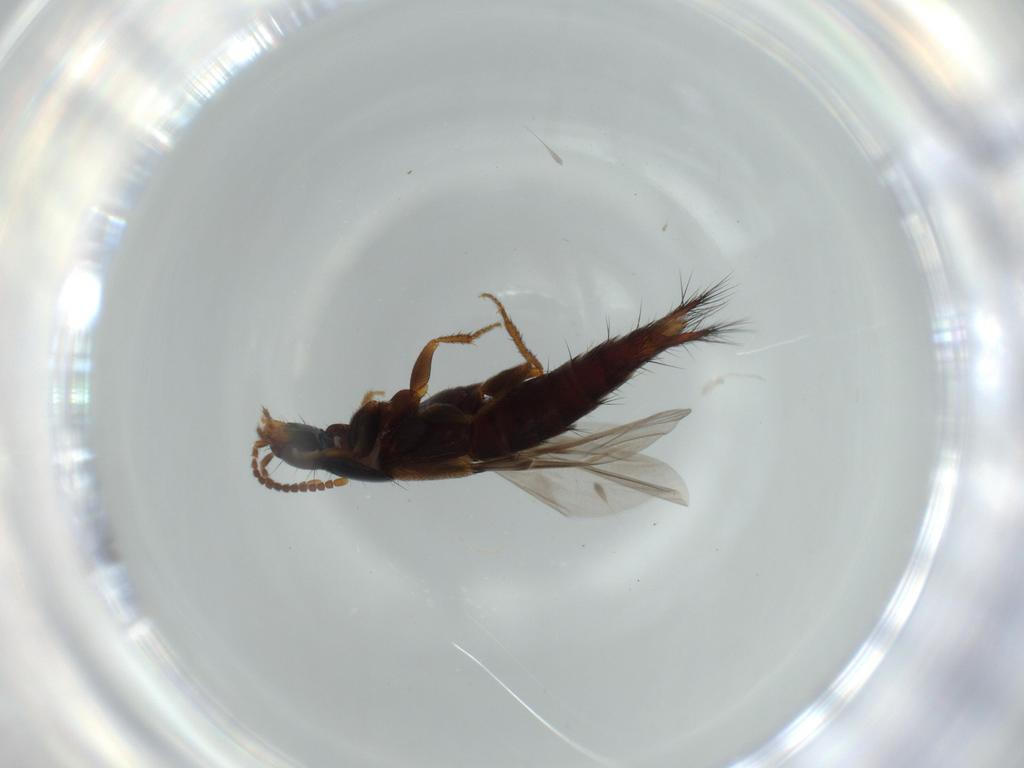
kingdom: Animalia
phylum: Arthropoda
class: Insecta
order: Coleoptera
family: Staphylinidae
